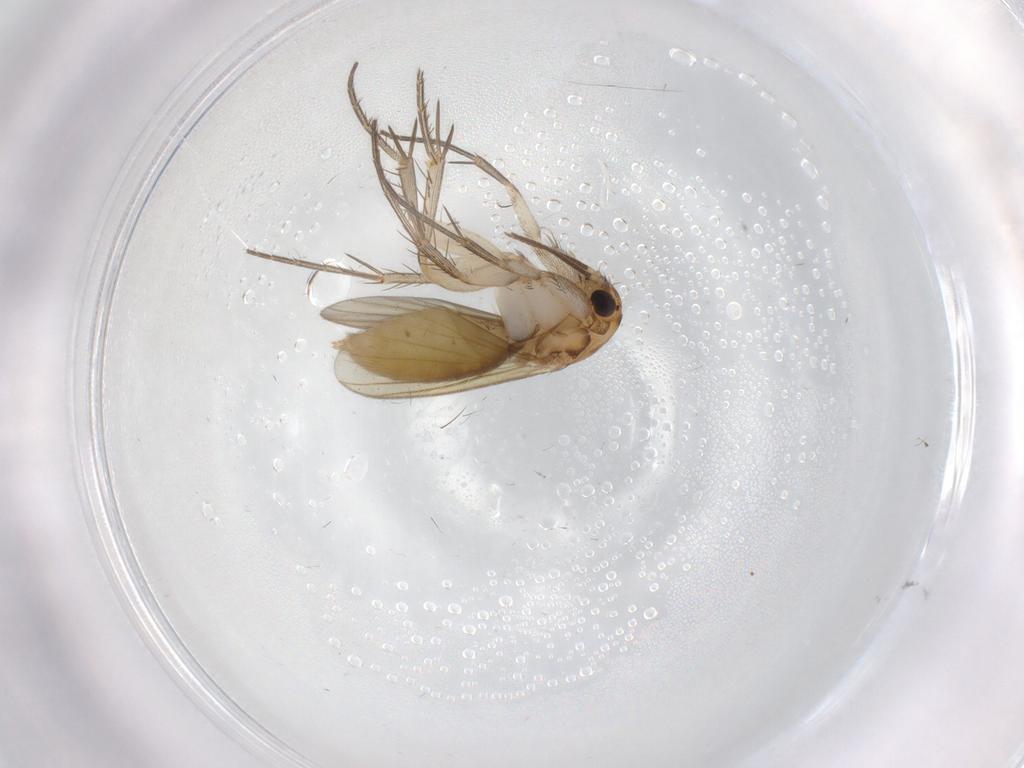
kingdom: Animalia
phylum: Arthropoda
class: Insecta
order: Diptera
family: Mycetophilidae
